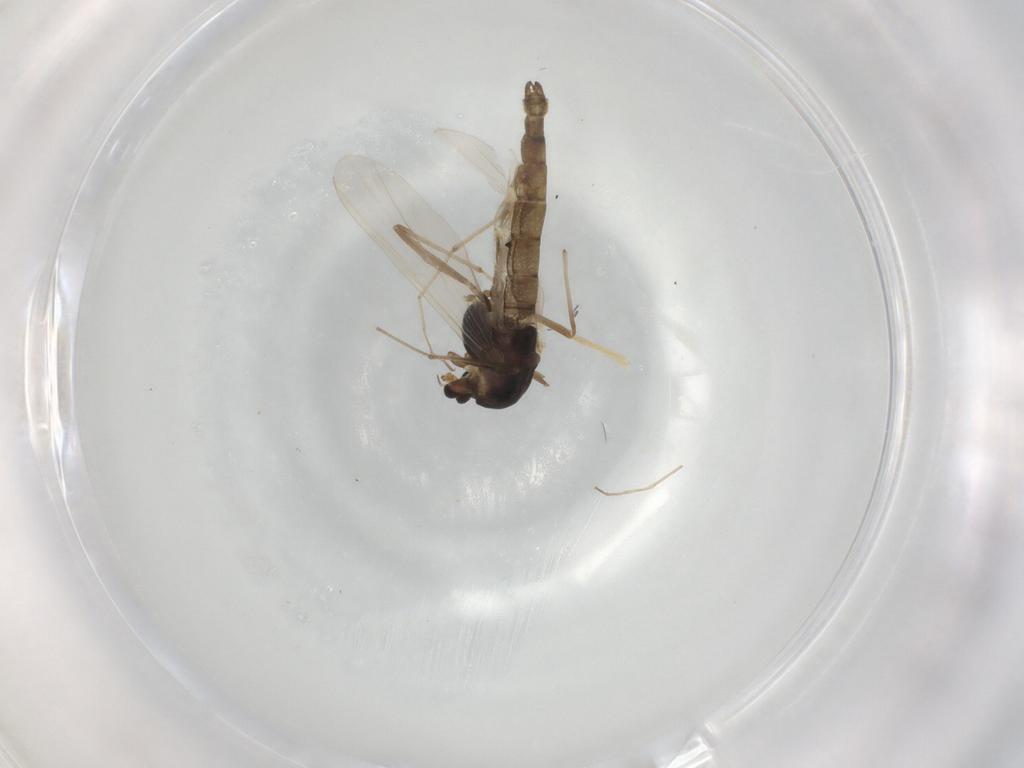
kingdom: Animalia
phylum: Arthropoda
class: Insecta
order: Diptera
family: Chironomidae
